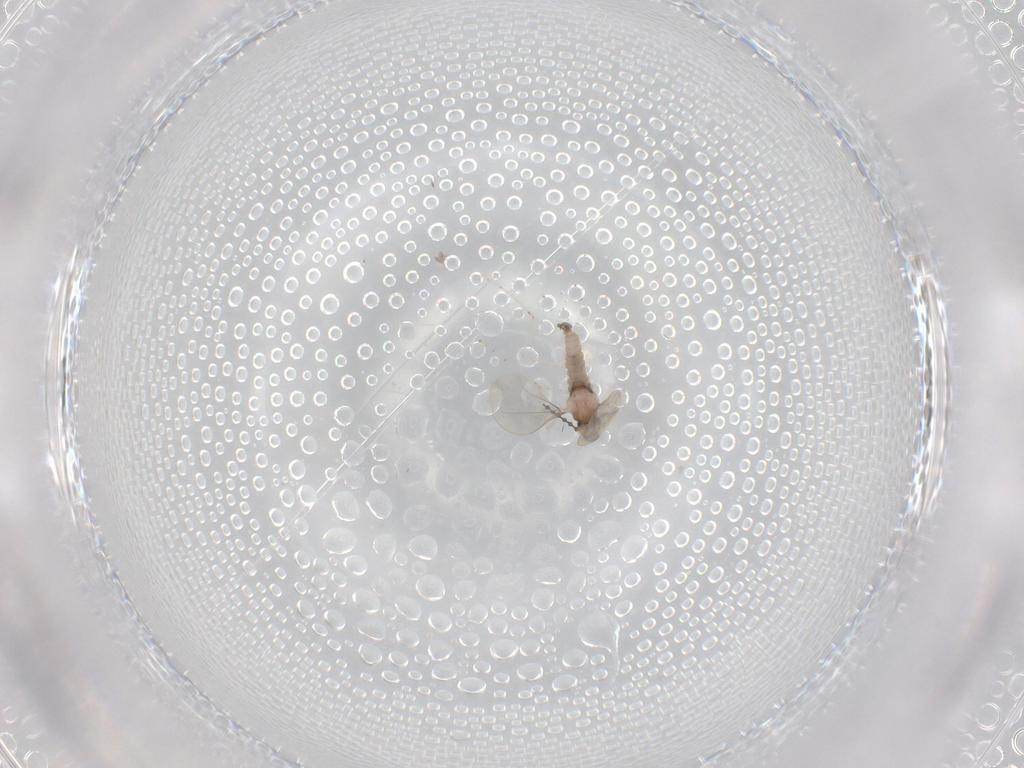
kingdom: Animalia
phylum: Arthropoda
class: Insecta
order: Diptera
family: Cecidomyiidae
